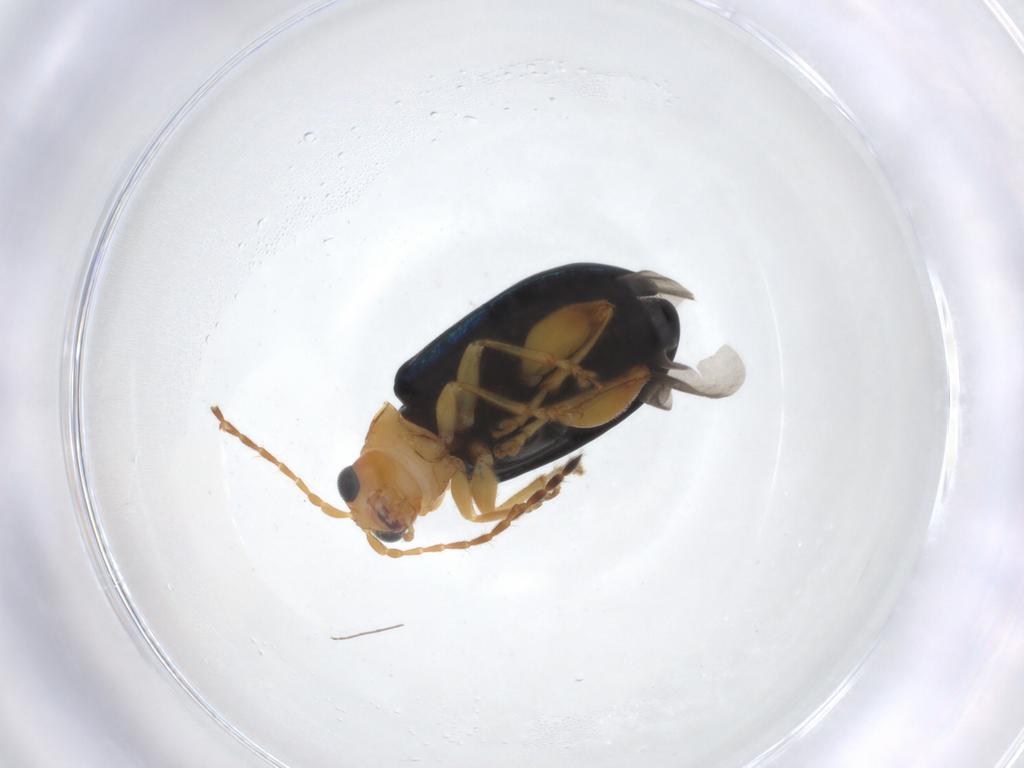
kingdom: Animalia
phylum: Arthropoda
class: Insecta
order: Coleoptera
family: Chrysomelidae
